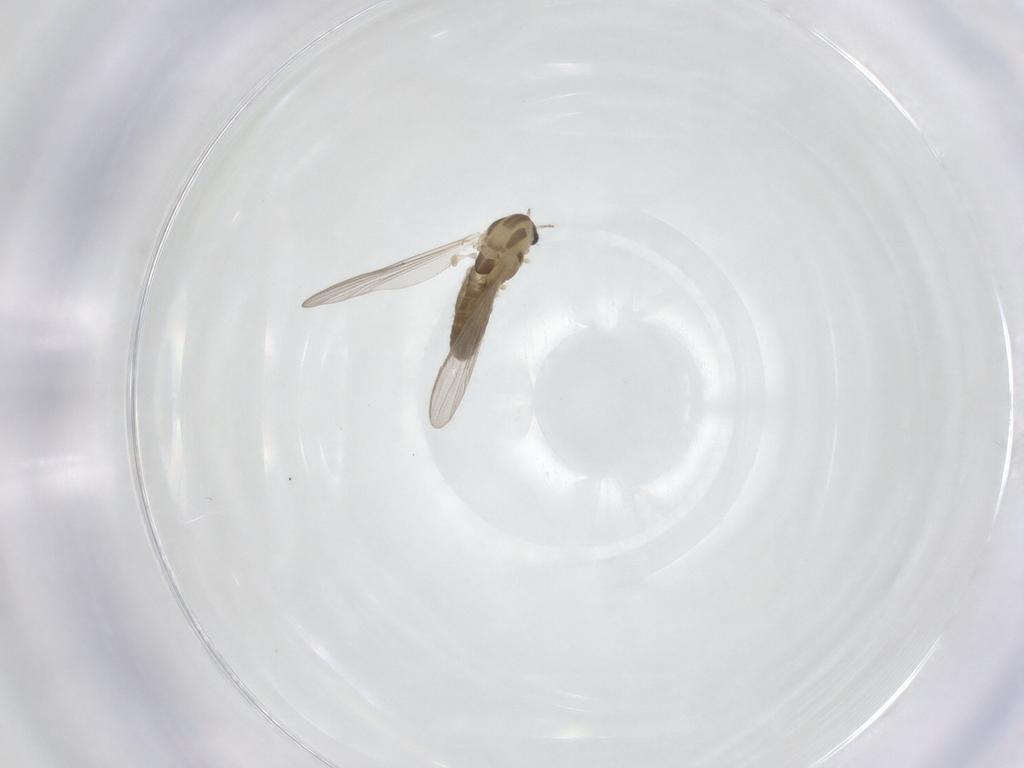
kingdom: Animalia
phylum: Arthropoda
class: Insecta
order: Diptera
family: Chironomidae
